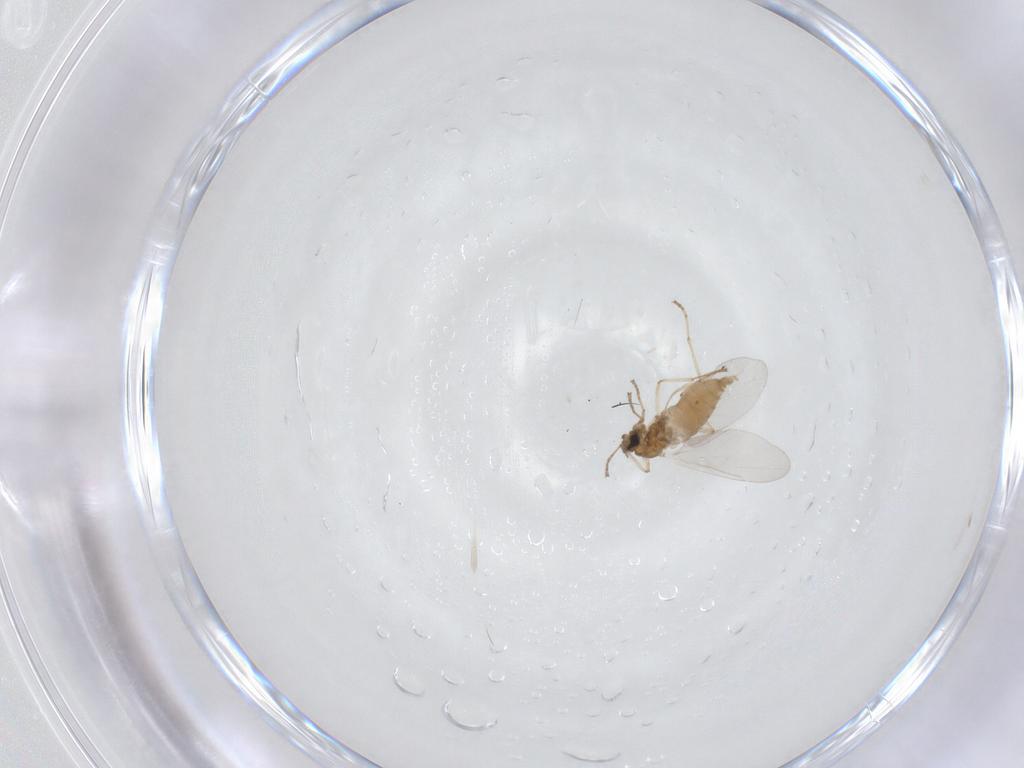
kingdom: Animalia
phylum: Arthropoda
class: Insecta
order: Diptera
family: Cecidomyiidae
